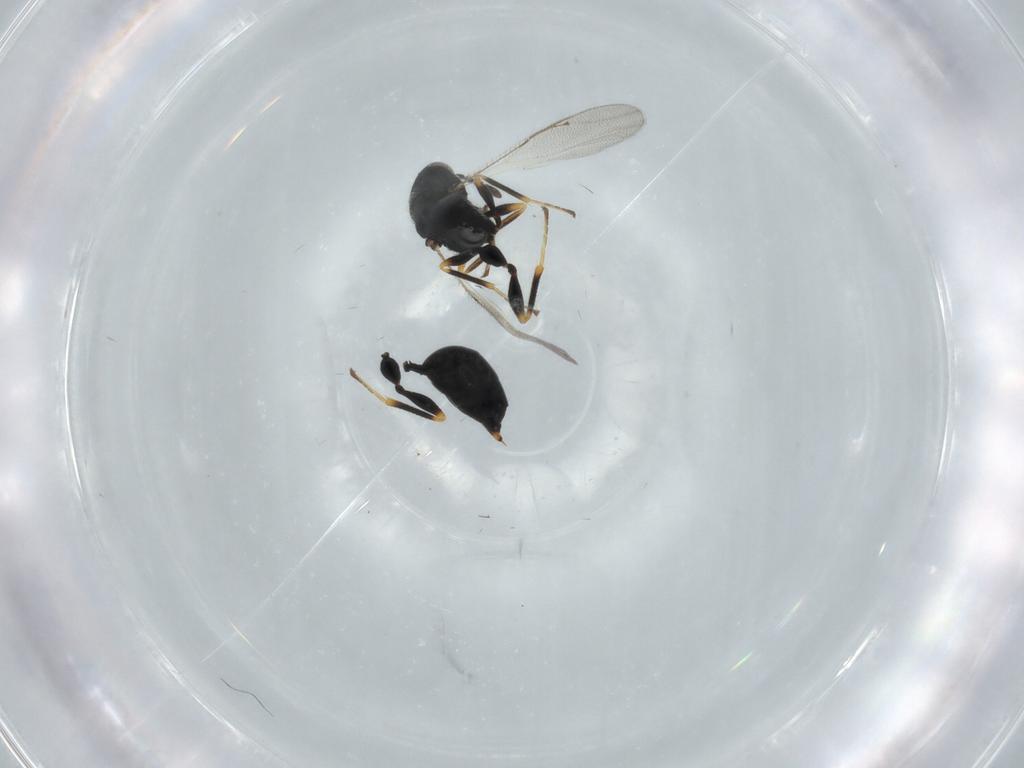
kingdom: Animalia
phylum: Arthropoda
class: Insecta
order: Hymenoptera
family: Eurytomidae
